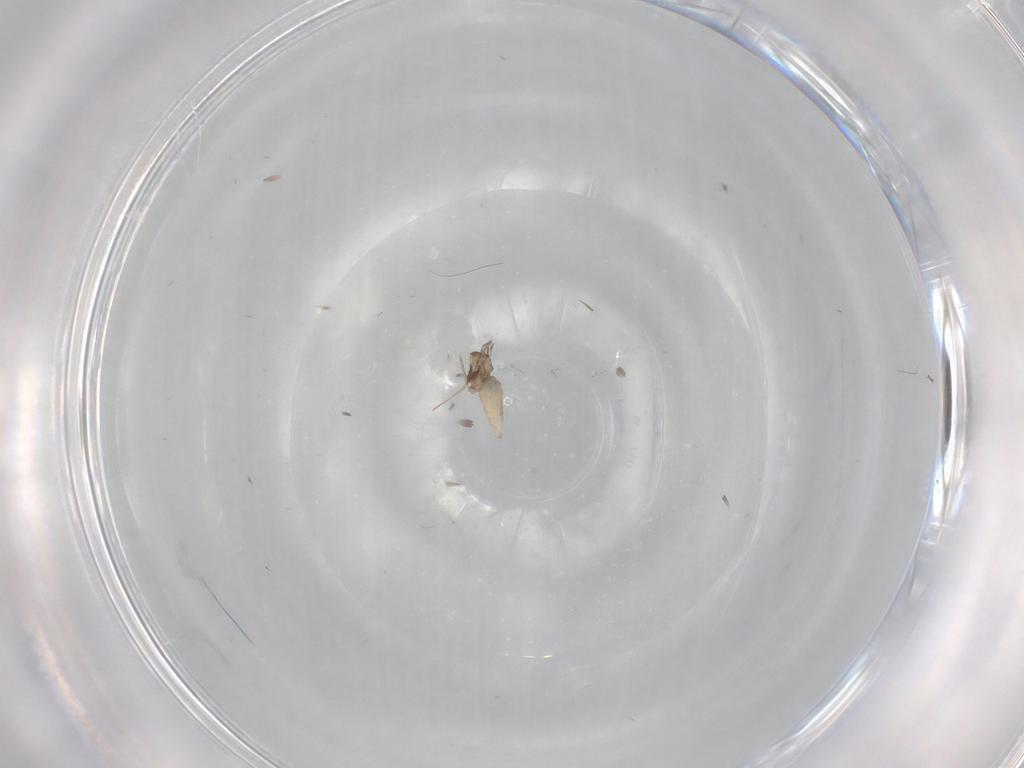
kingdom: Animalia
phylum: Arthropoda
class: Insecta
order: Diptera
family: Cecidomyiidae
